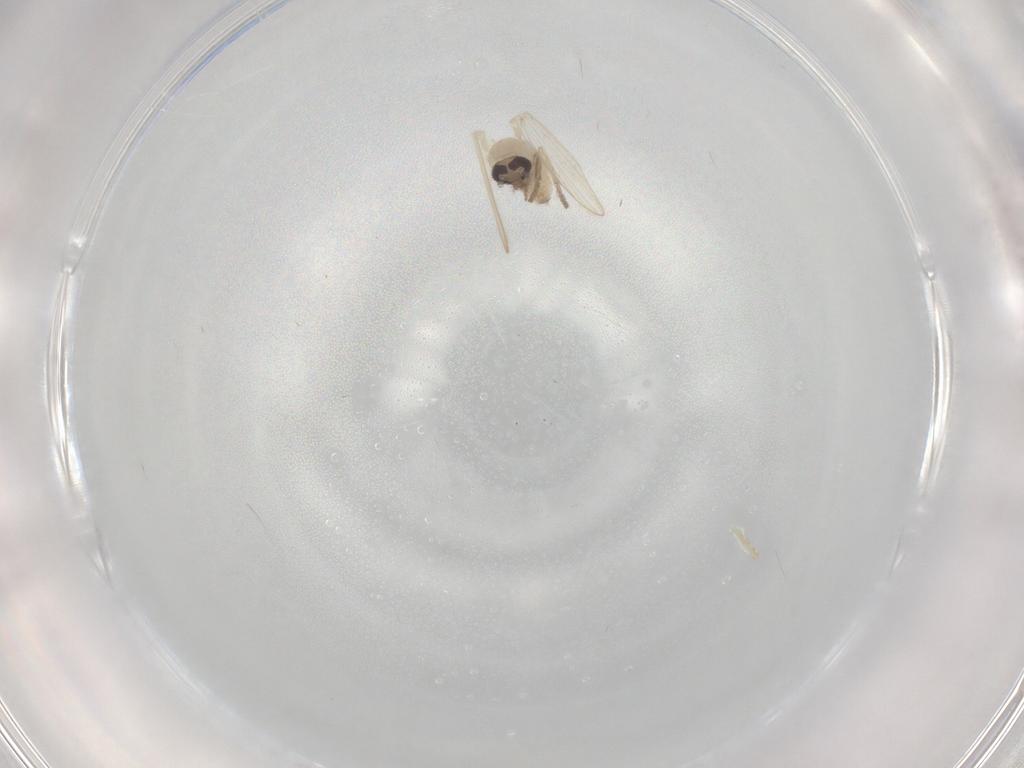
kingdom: Animalia
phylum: Arthropoda
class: Insecta
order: Diptera
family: Psychodidae
